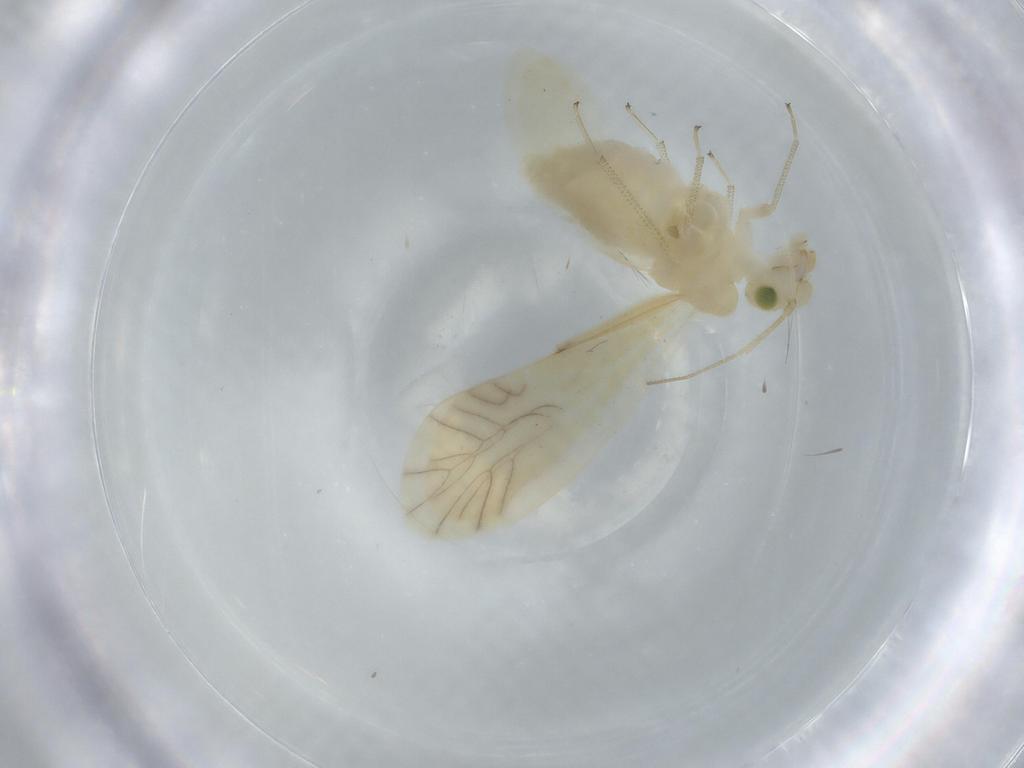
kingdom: Animalia
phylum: Arthropoda
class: Insecta
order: Psocodea
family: Caeciliusidae
